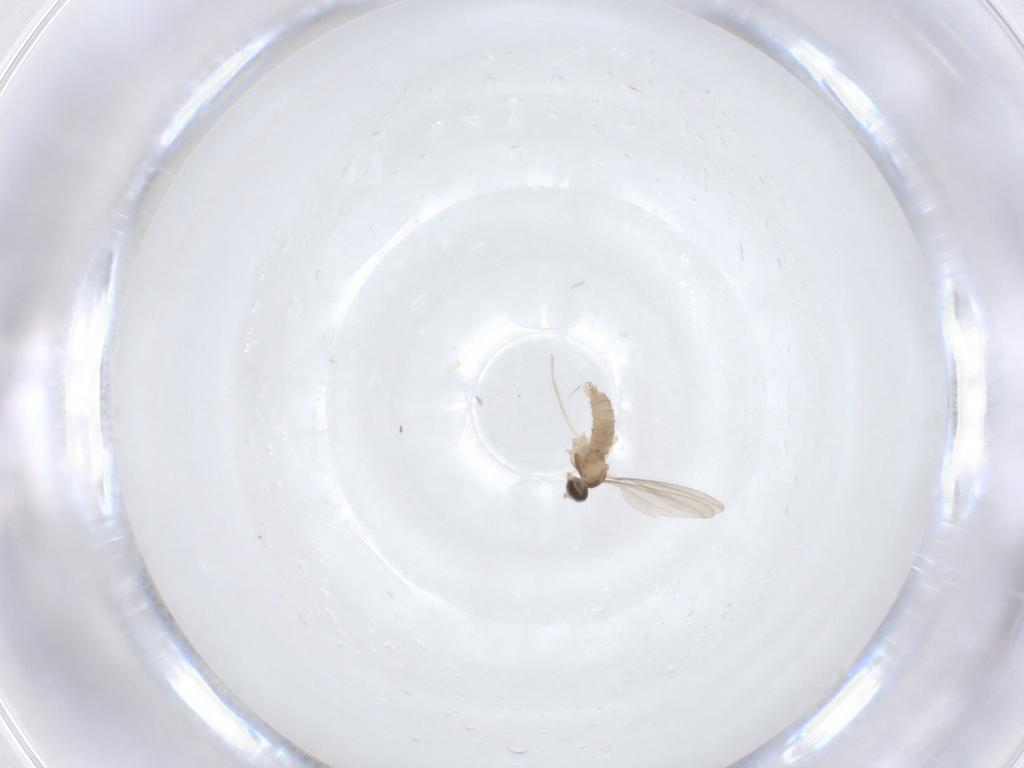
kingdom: Animalia
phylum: Arthropoda
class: Insecta
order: Diptera
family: Cecidomyiidae
